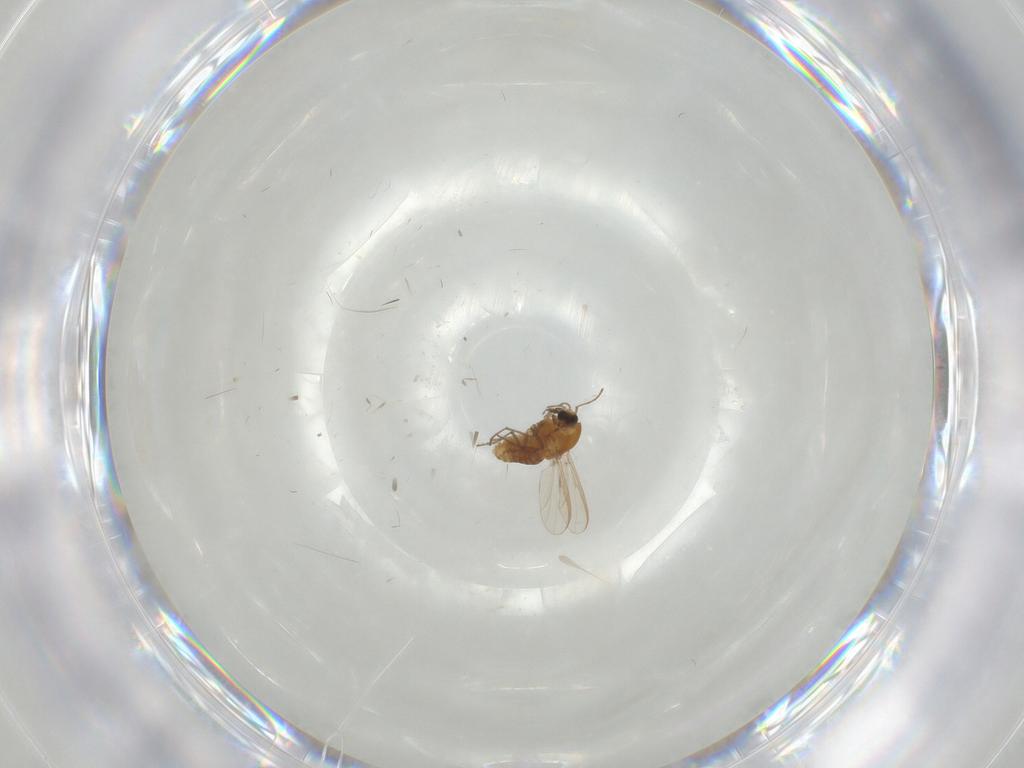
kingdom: Animalia
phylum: Arthropoda
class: Insecta
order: Diptera
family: Chironomidae
